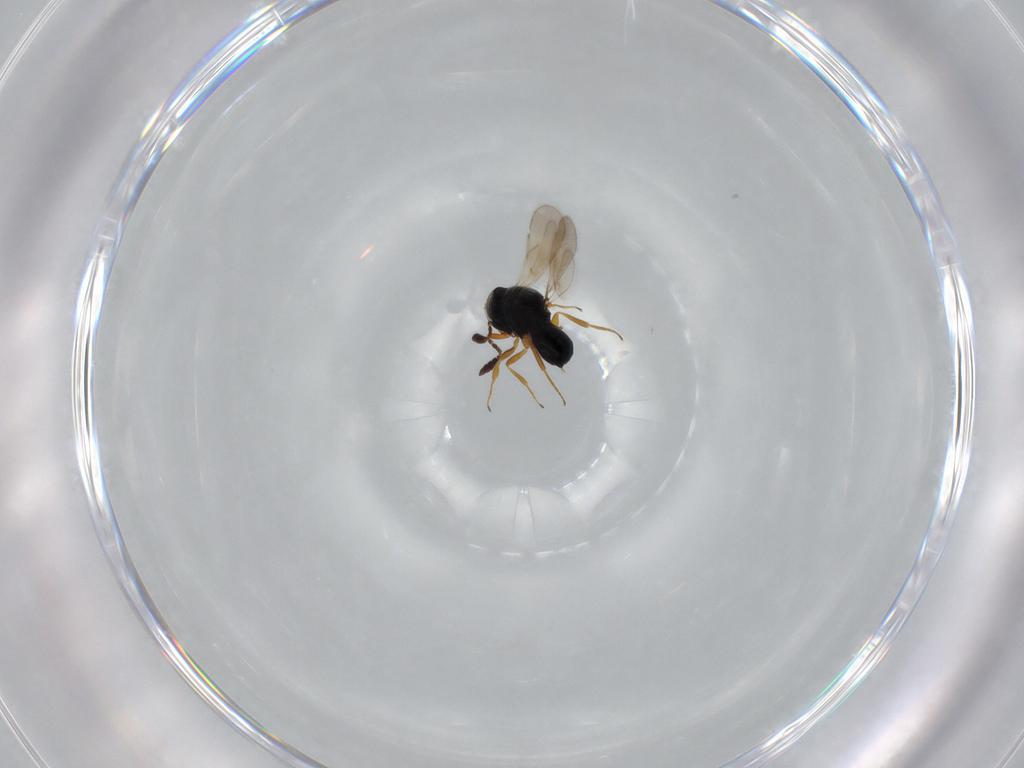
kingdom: Animalia
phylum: Arthropoda
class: Insecta
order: Hymenoptera
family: Scelionidae
